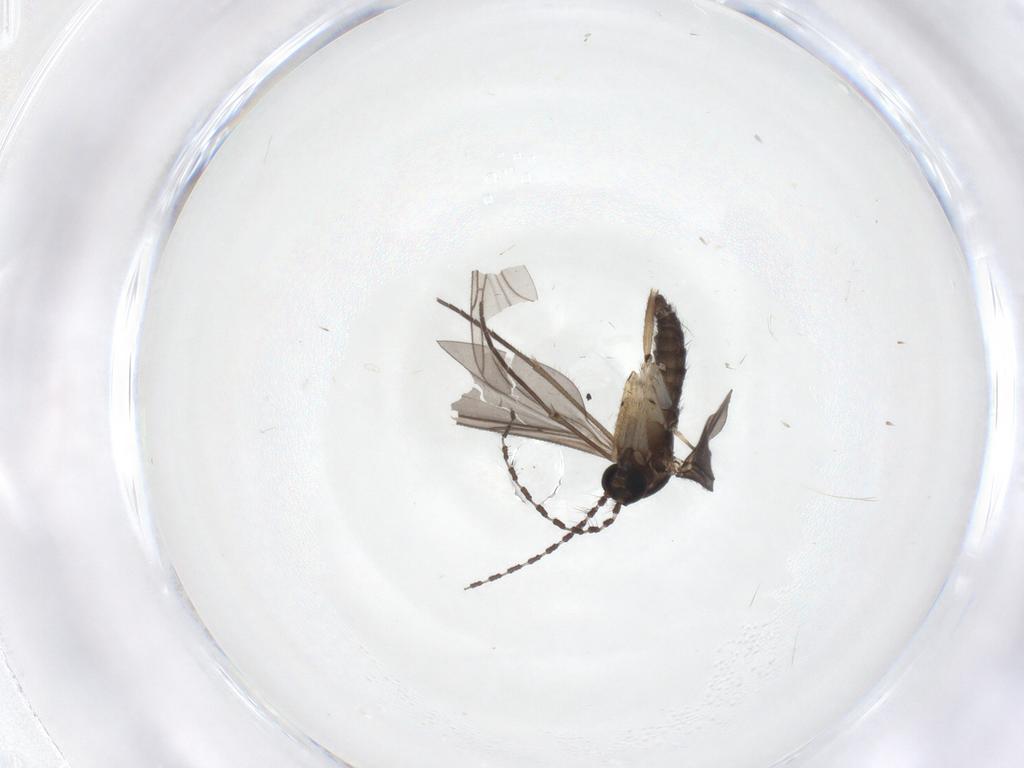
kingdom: Animalia
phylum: Arthropoda
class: Insecta
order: Diptera
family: Sciaridae
